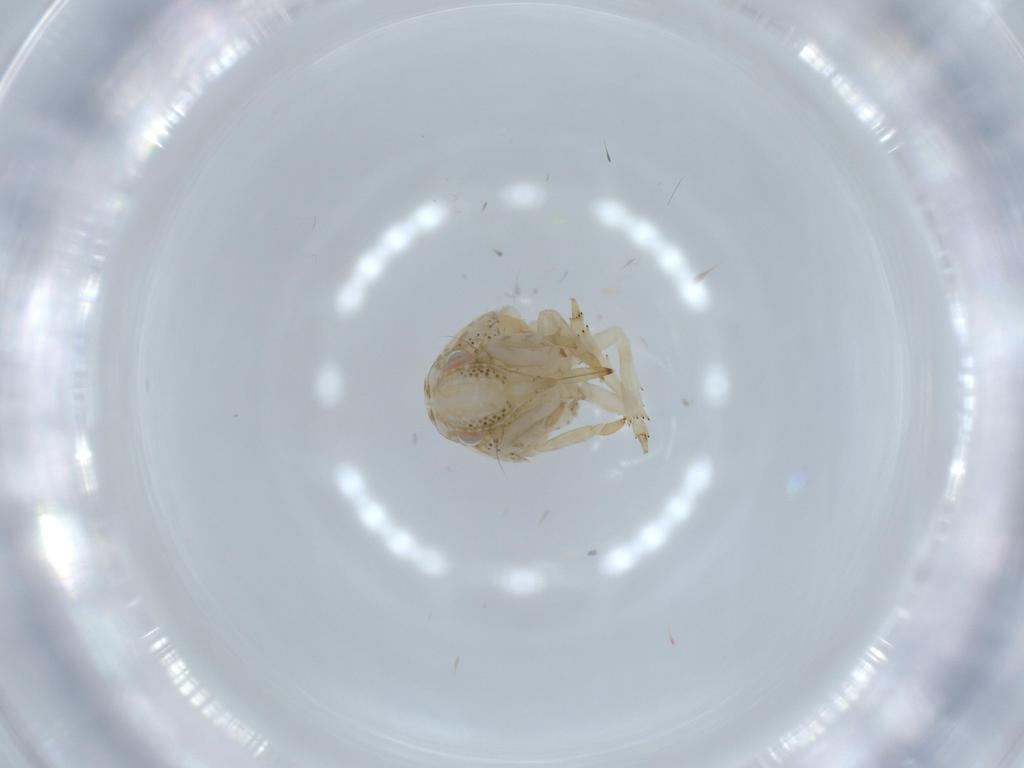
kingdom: Animalia
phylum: Arthropoda
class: Insecta
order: Hemiptera
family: Acanaloniidae
